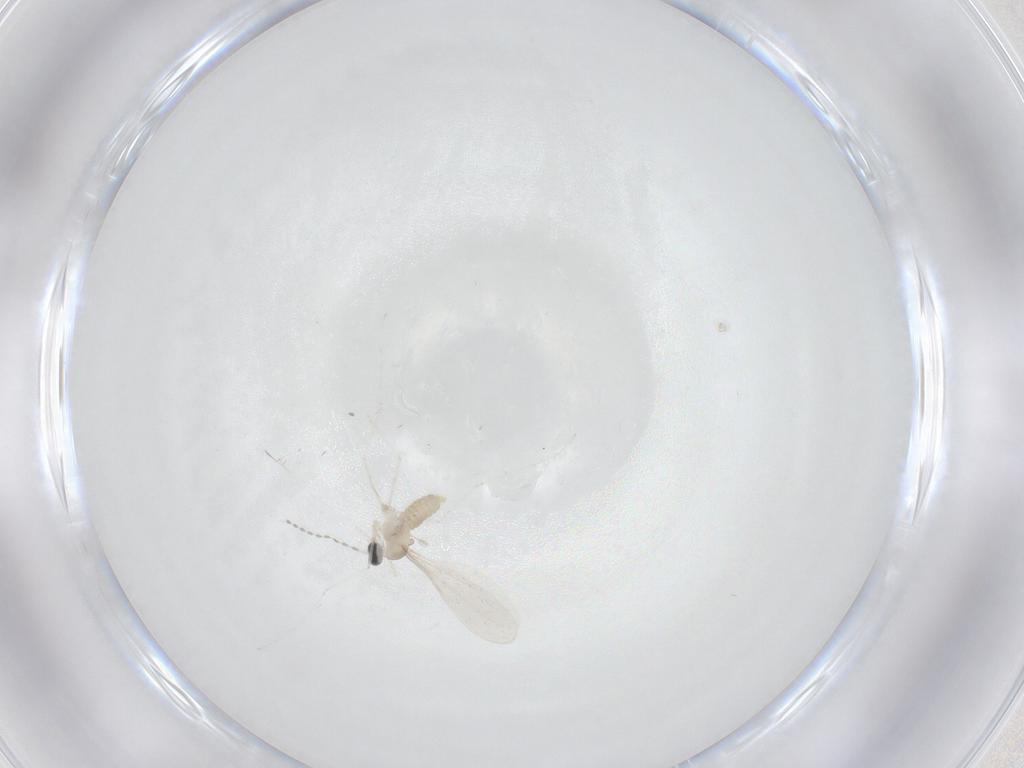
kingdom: Animalia
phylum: Arthropoda
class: Insecta
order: Diptera
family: Cecidomyiidae
